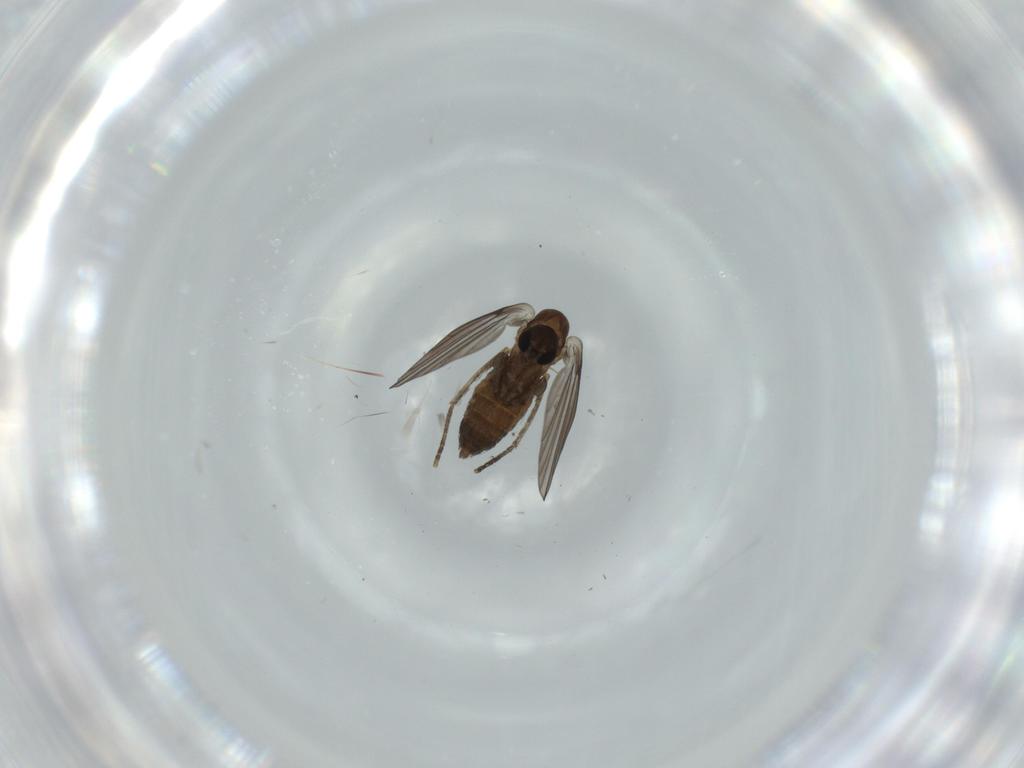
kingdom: Animalia
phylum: Arthropoda
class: Insecta
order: Diptera
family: Psychodidae
